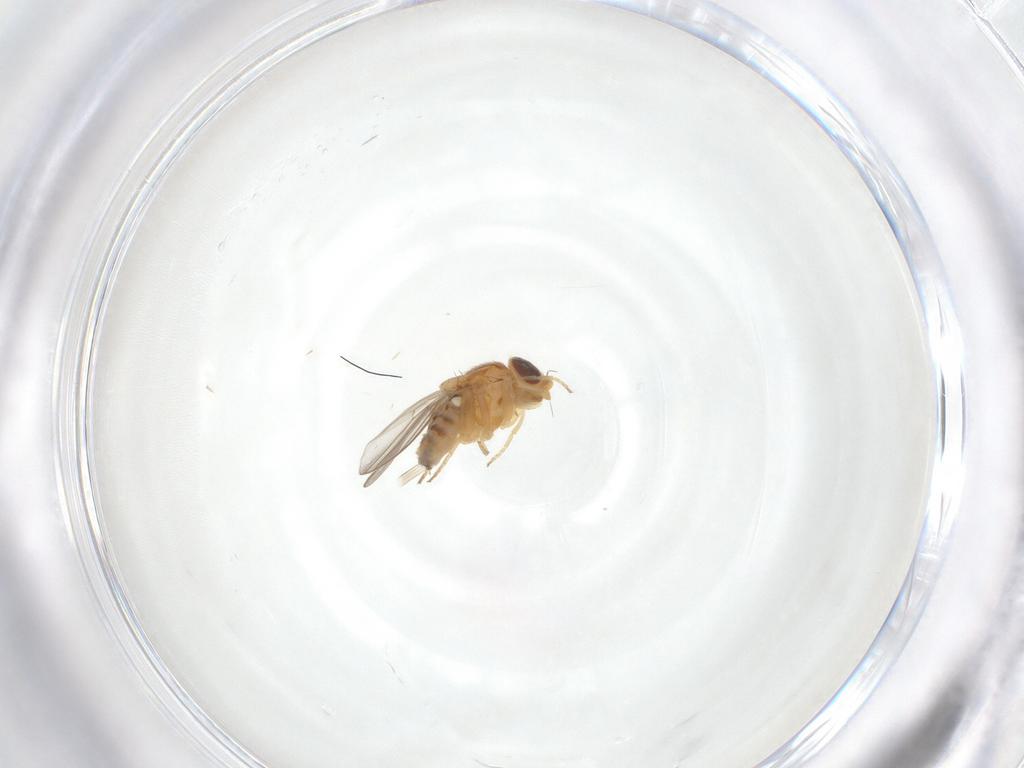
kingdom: Animalia
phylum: Arthropoda
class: Insecta
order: Diptera
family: Chloropidae
